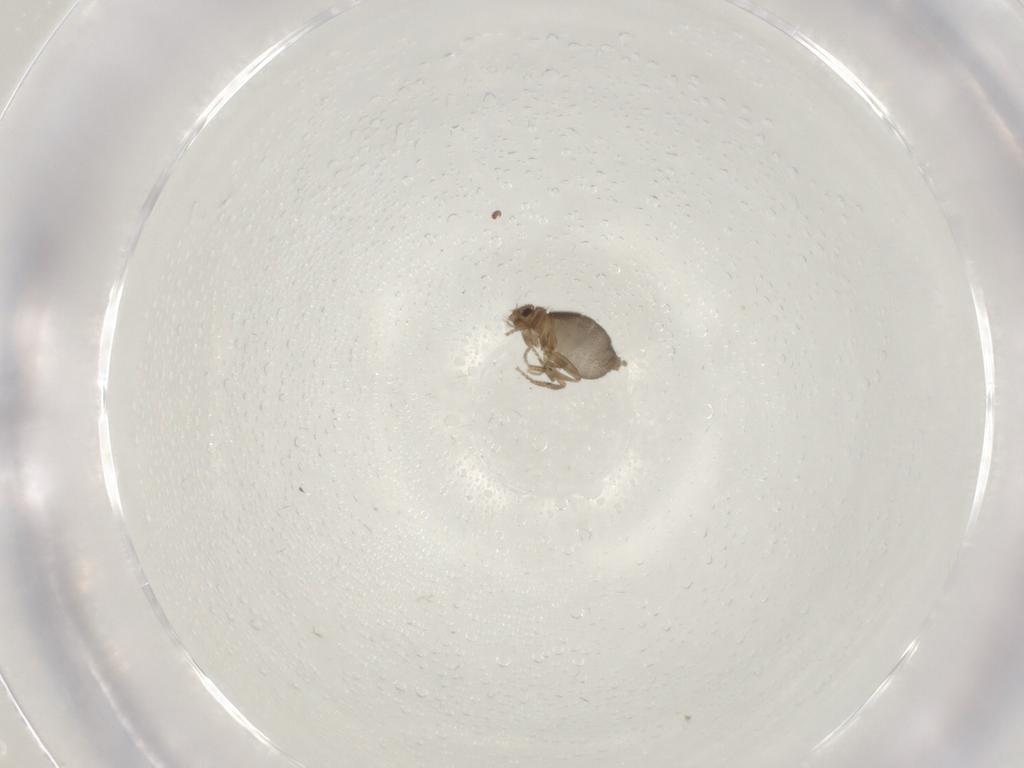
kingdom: Animalia
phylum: Arthropoda
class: Insecta
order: Diptera
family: Phoridae
